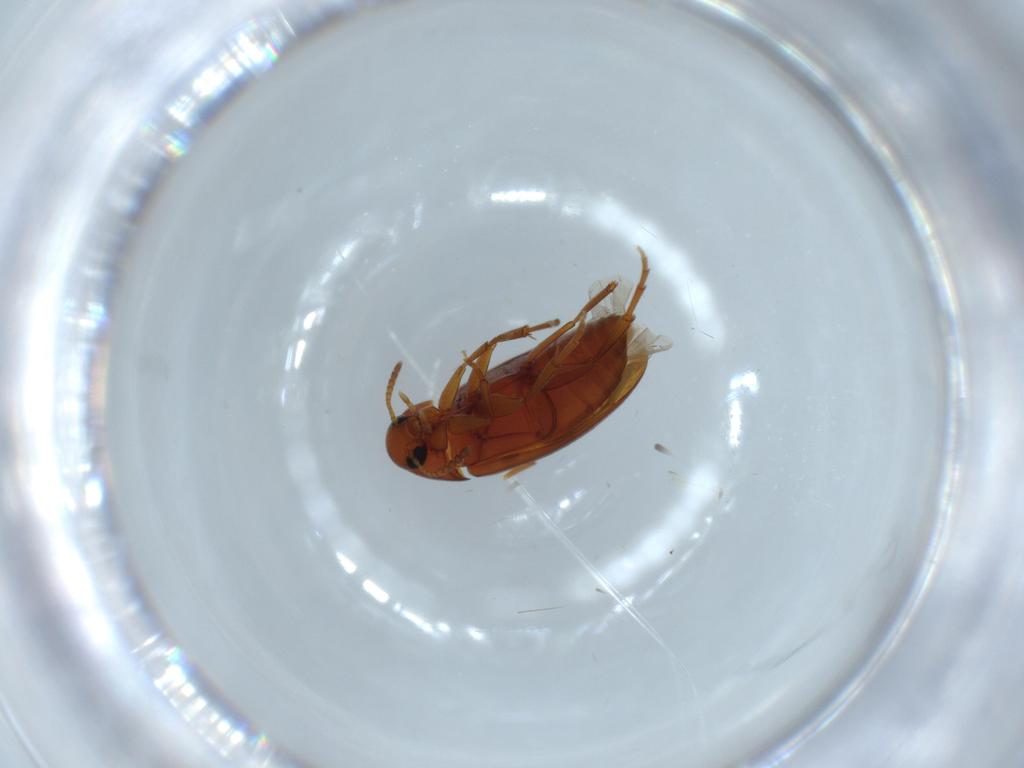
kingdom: Animalia
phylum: Arthropoda
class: Insecta
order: Coleoptera
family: Scraptiidae
